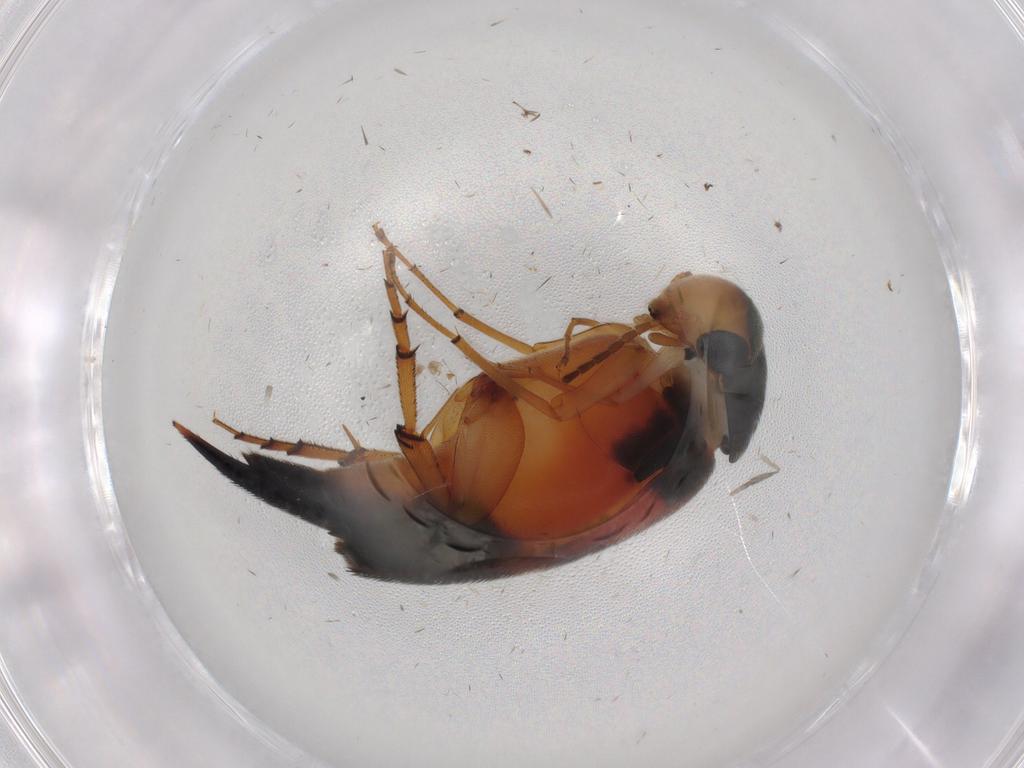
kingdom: Animalia
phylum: Arthropoda
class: Insecta
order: Coleoptera
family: Mordellidae
